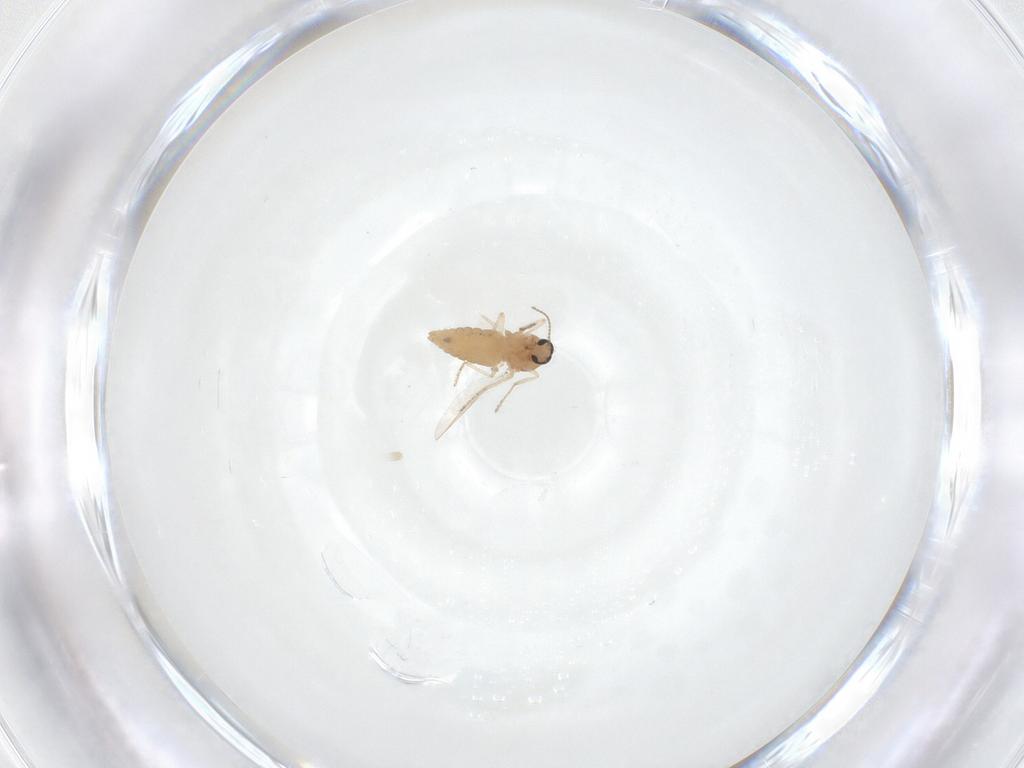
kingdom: Animalia
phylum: Arthropoda
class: Insecta
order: Diptera
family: Ceratopogonidae
